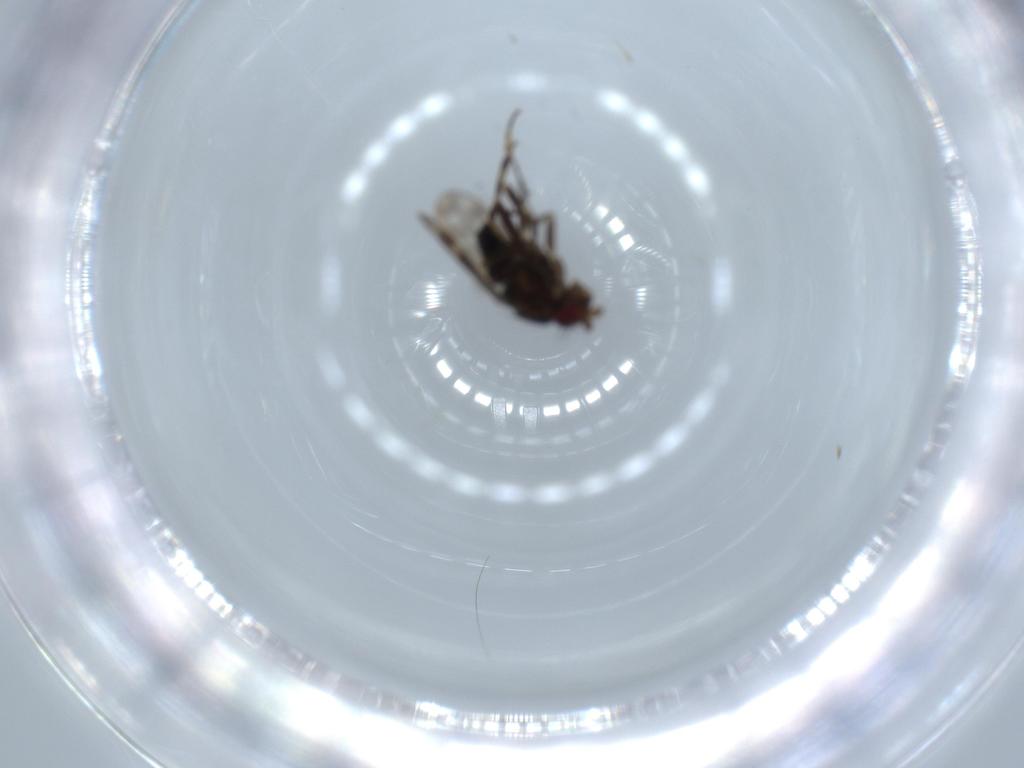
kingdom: Animalia
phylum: Arthropoda
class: Insecta
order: Diptera
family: Sphaeroceridae
